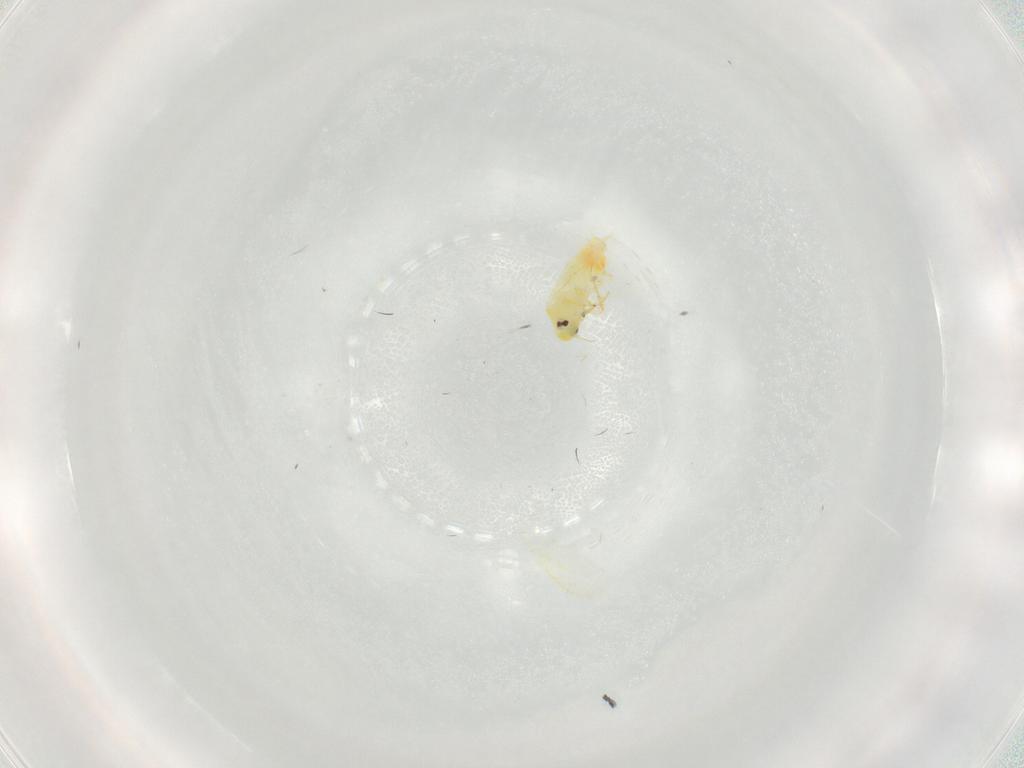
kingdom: Animalia
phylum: Arthropoda
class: Insecta
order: Hemiptera
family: Aleyrodidae
